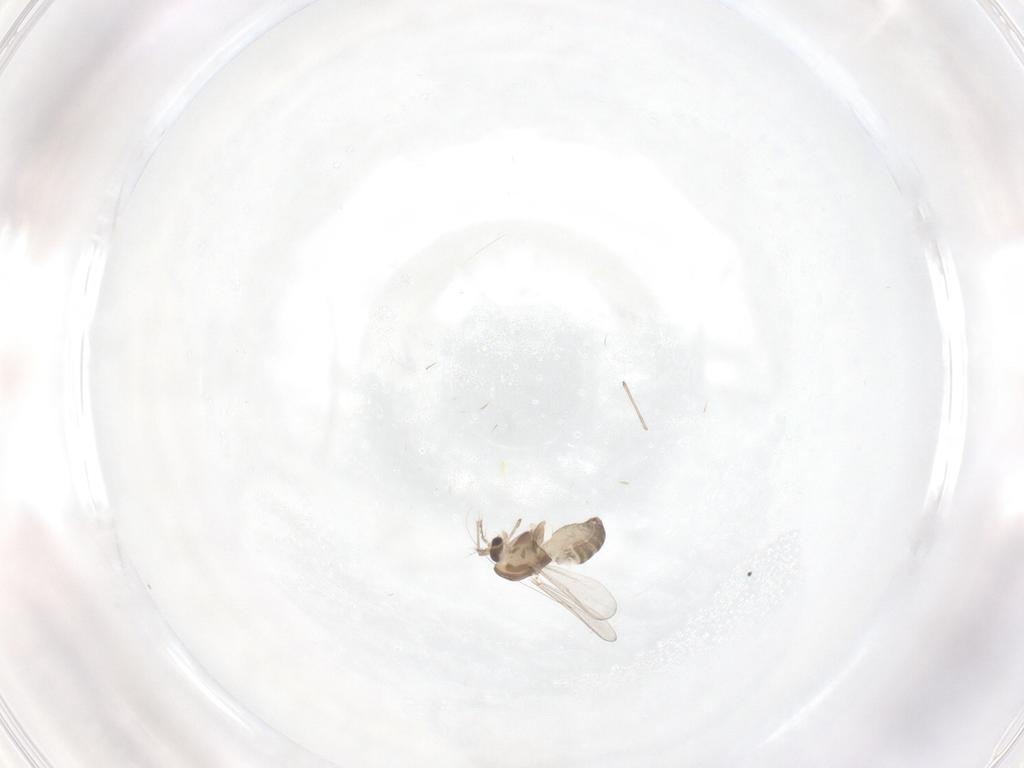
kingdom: Animalia
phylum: Arthropoda
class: Insecta
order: Diptera
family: Chironomidae
